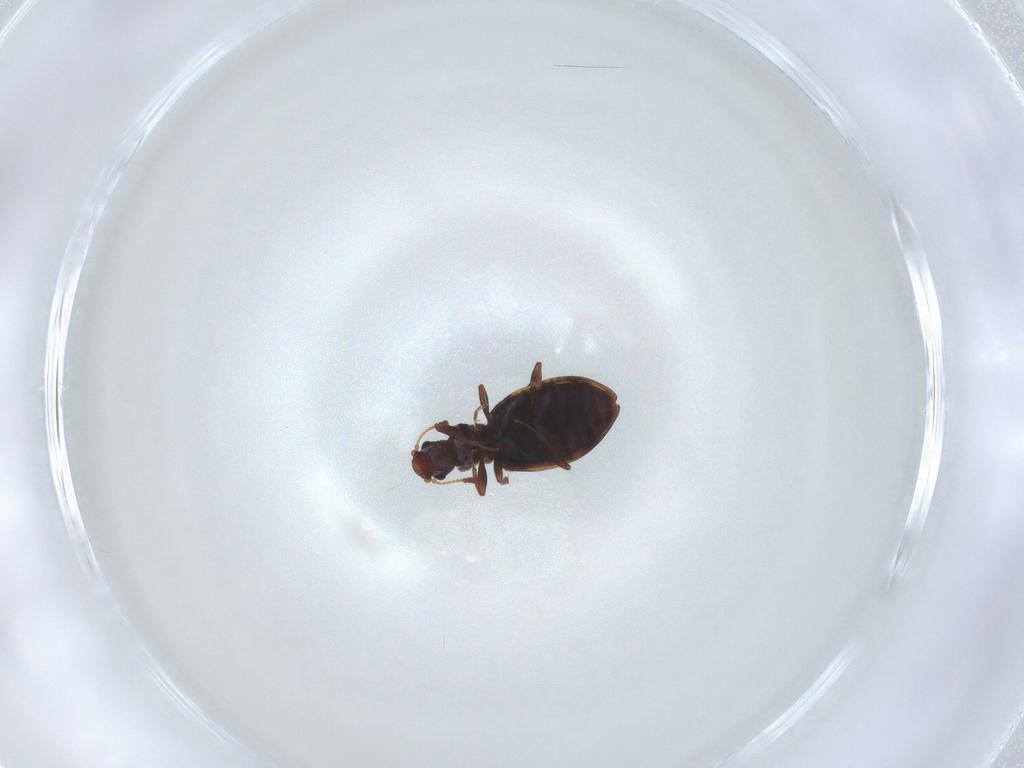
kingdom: Animalia
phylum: Arthropoda
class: Insecta
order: Coleoptera
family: Latridiidae
